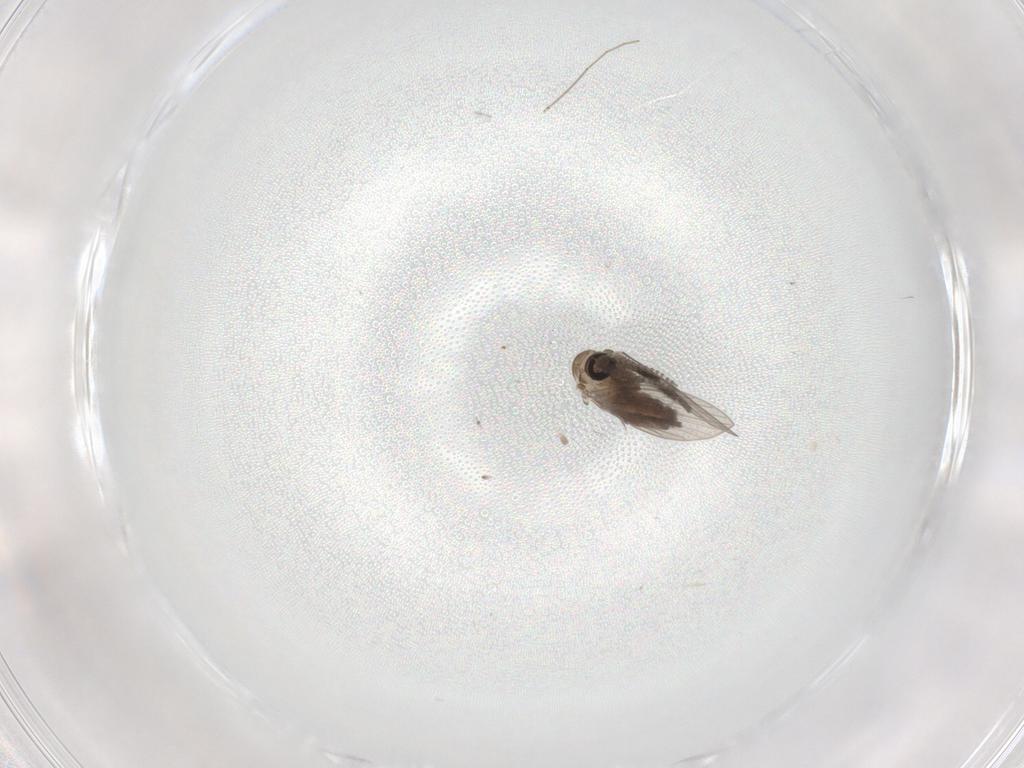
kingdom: Animalia
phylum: Arthropoda
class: Insecta
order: Diptera
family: Psychodidae
